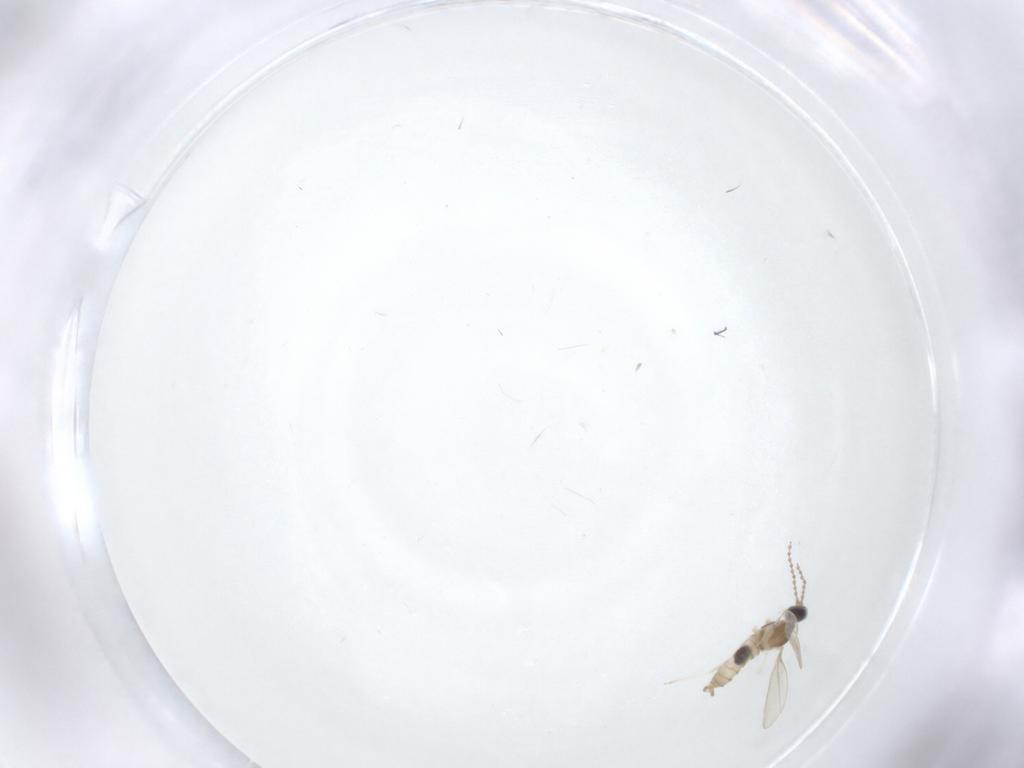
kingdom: Animalia
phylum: Arthropoda
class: Insecta
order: Diptera
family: Cecidomyiidae
